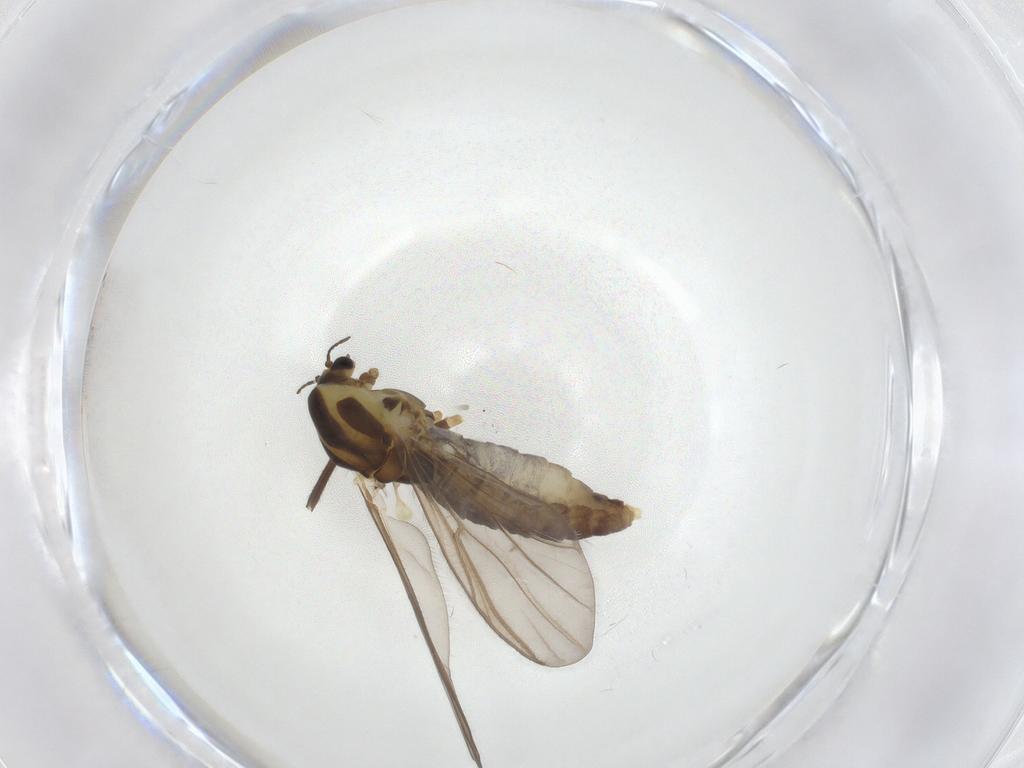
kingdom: Animalia
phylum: Arthropoda
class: Insecta
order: Diptera
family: Cecidomyiidae
